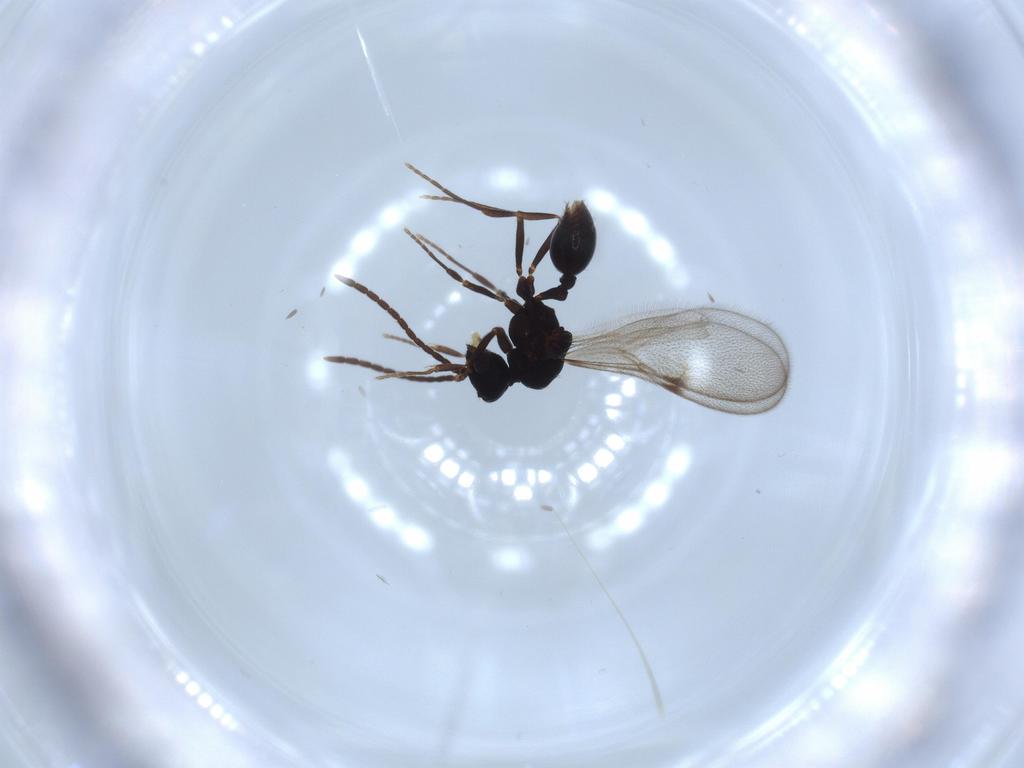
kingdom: Animalia
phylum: Arthropoda
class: Insecta
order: Hymenoptera
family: Formicidae
